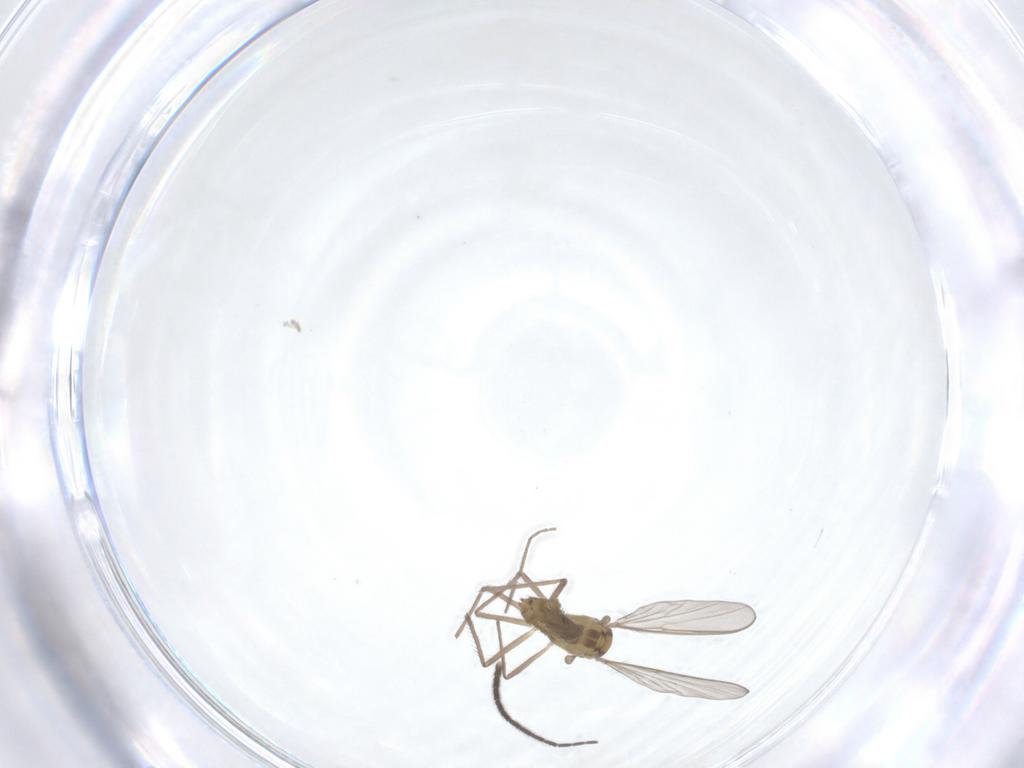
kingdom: Animalia
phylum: Arthropoda
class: Insecta
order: Diptera
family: Chironomidae
